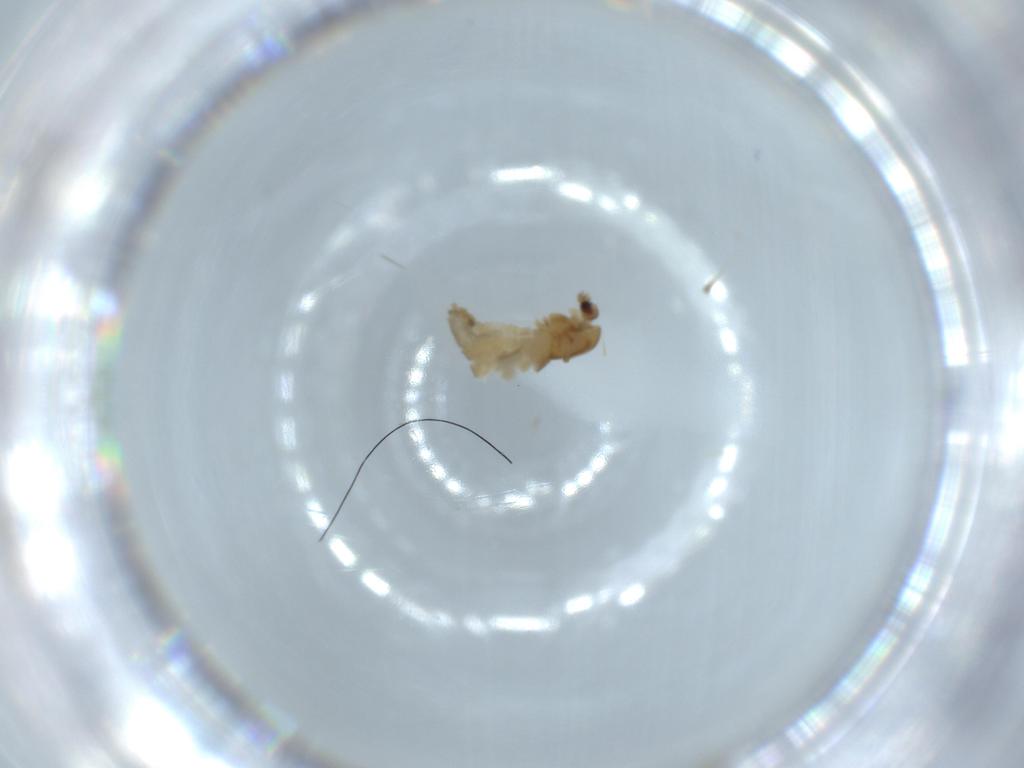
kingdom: Animalia
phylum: Arthropoda
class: Insecta
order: Diptera
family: Chironomidae
